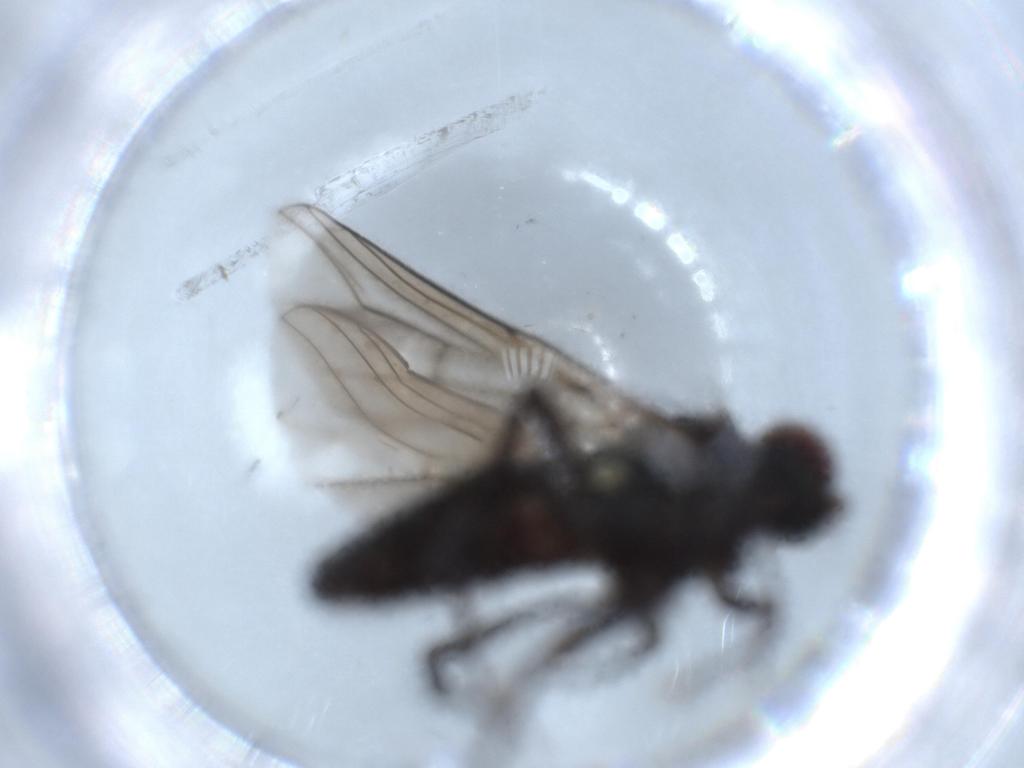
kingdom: Animalia
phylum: Arthropoda
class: Insecta
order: Diptera
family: Dolichopodidae
